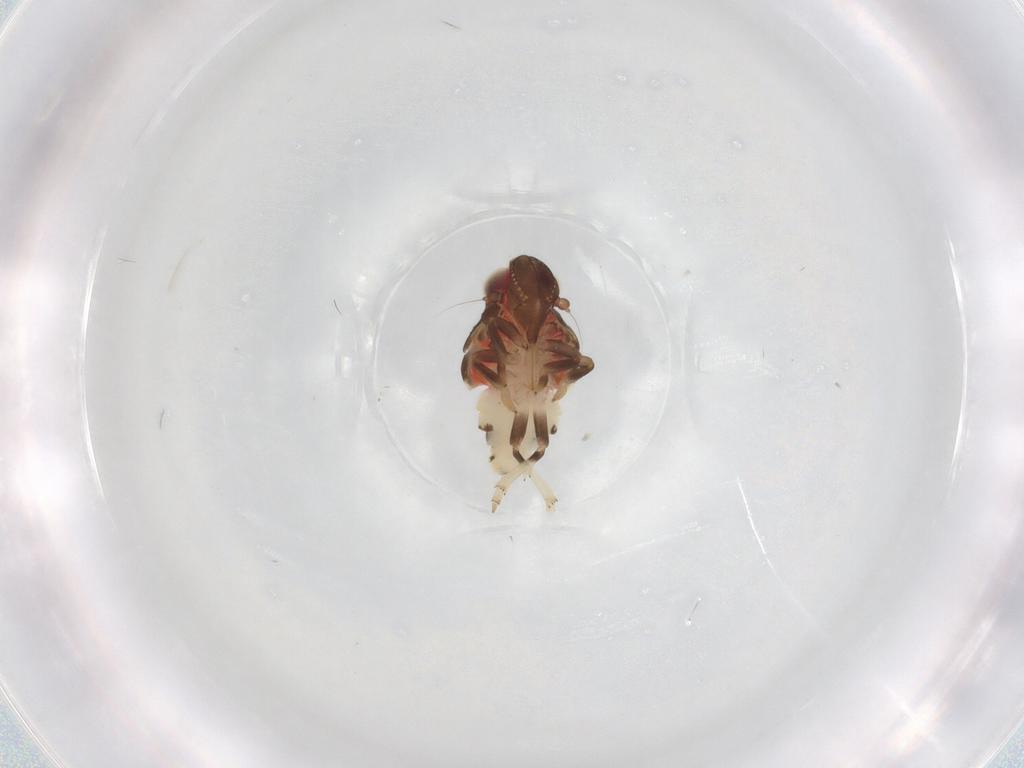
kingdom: Animalia
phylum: Arthropoda
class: Insecta
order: Hemiptera
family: Nogodinidae
